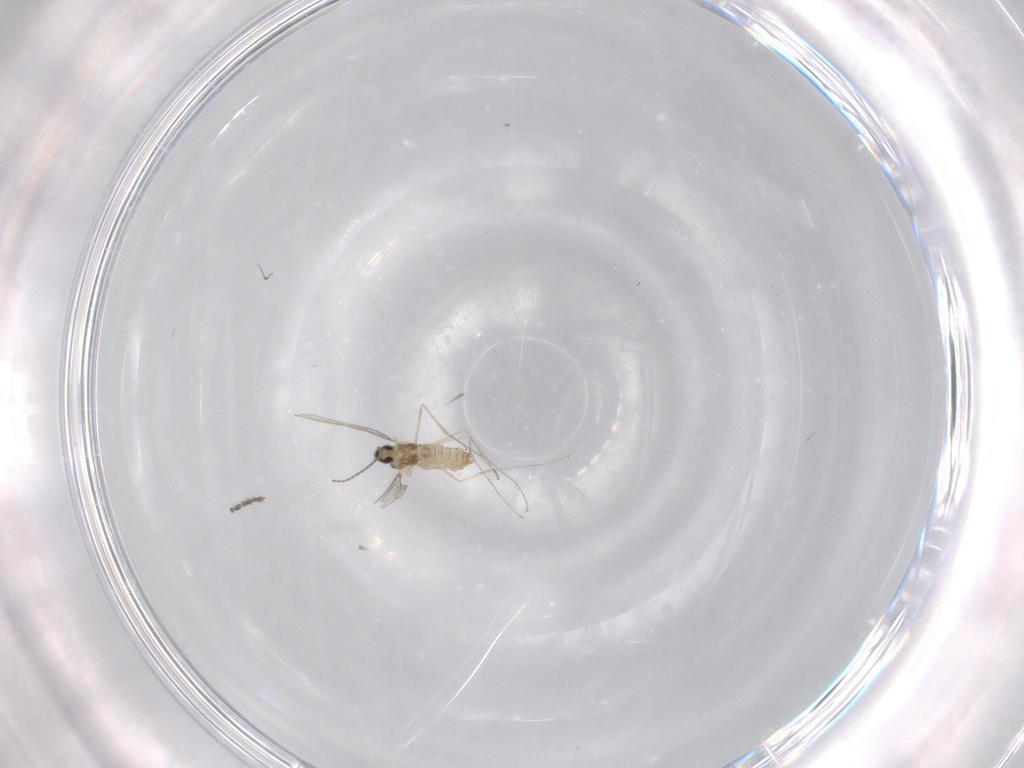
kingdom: Animalia
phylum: Arthropoda
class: Insecta
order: Diptera
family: Cecidomyiidae
